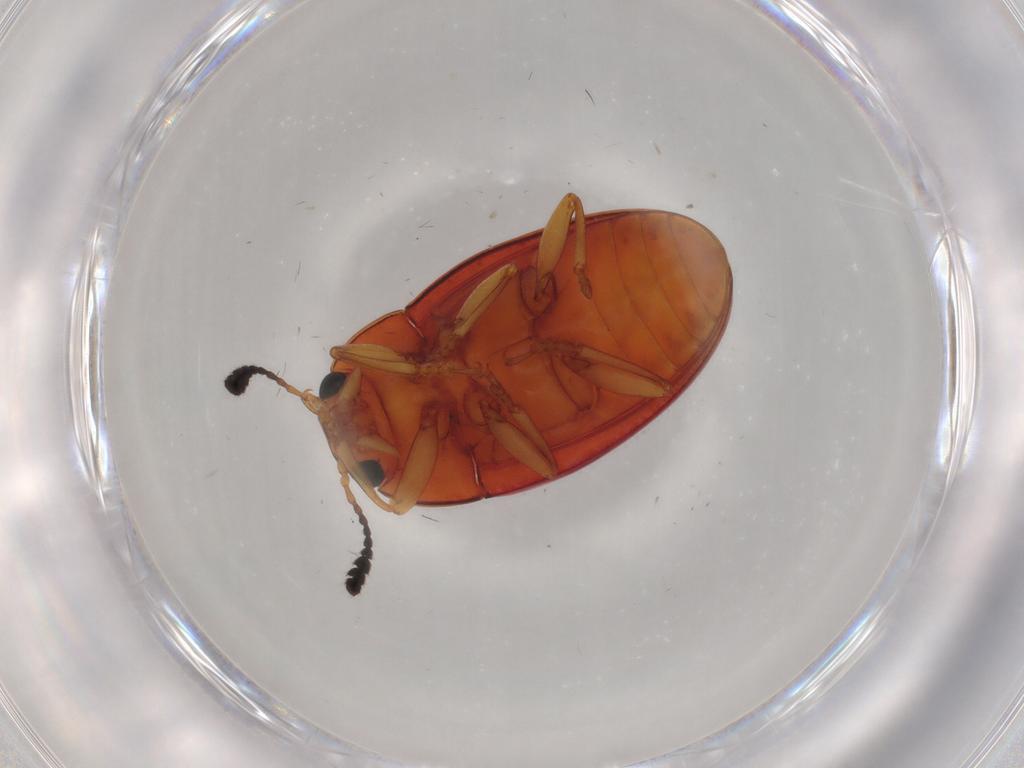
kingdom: Animalia
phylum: Arthropoda
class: Insecta
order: Coleoptera
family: Erotylidae
